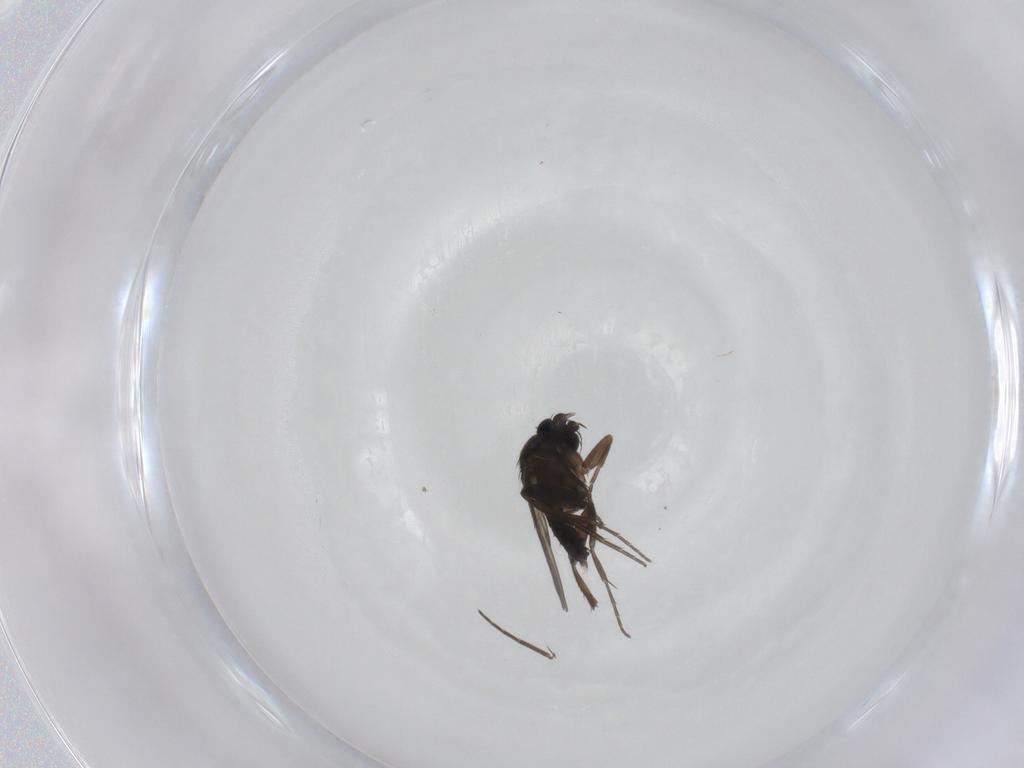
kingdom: Animalia
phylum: Arthropoda
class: Insecta
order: Diptera
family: Phoridae
